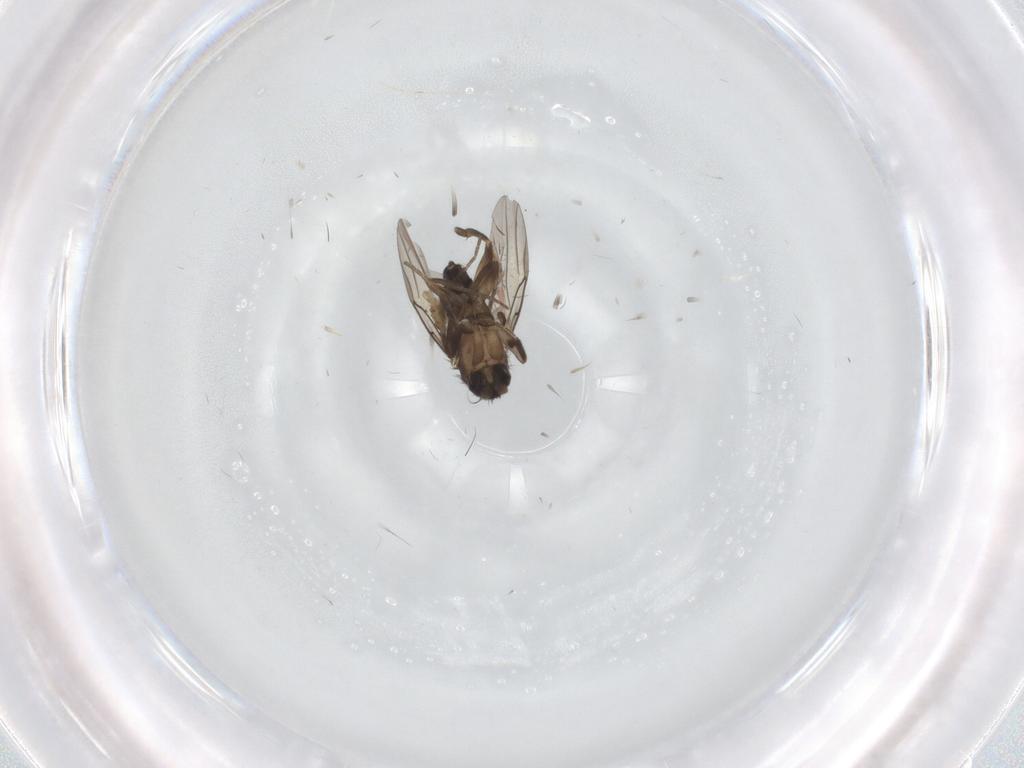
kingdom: Animalia
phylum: Arthropoda
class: Insecta
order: Diptera
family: Phoridae
